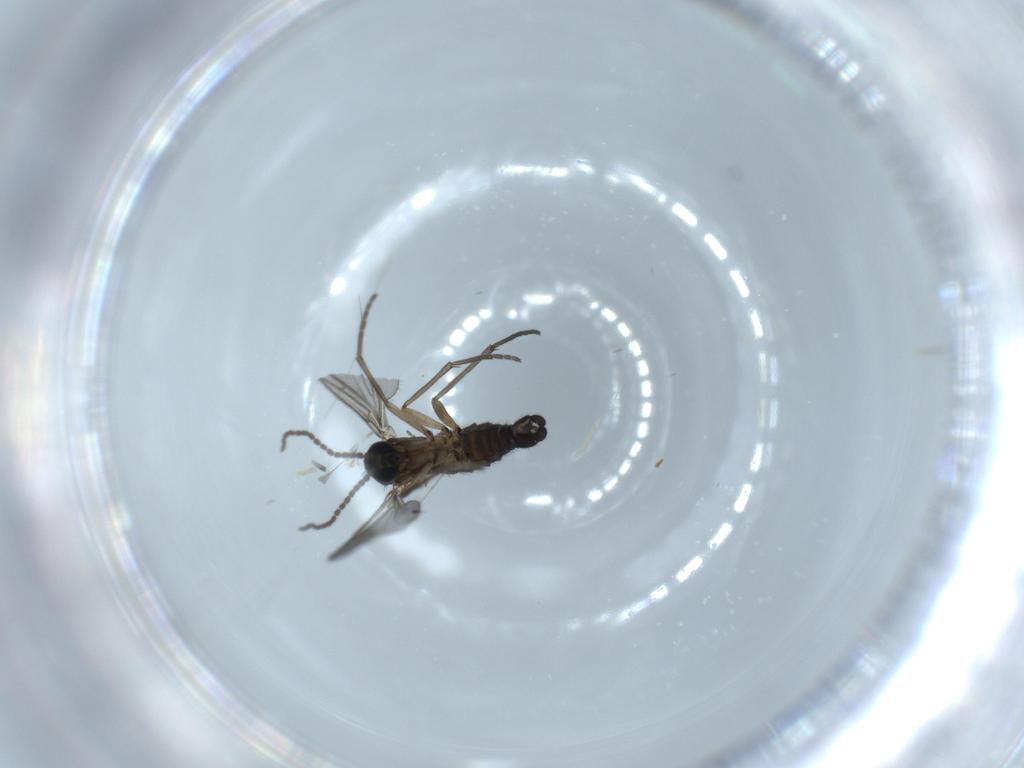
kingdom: Animalia
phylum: Arthropoda
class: Insecta
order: Diptera
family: Sciaridae
